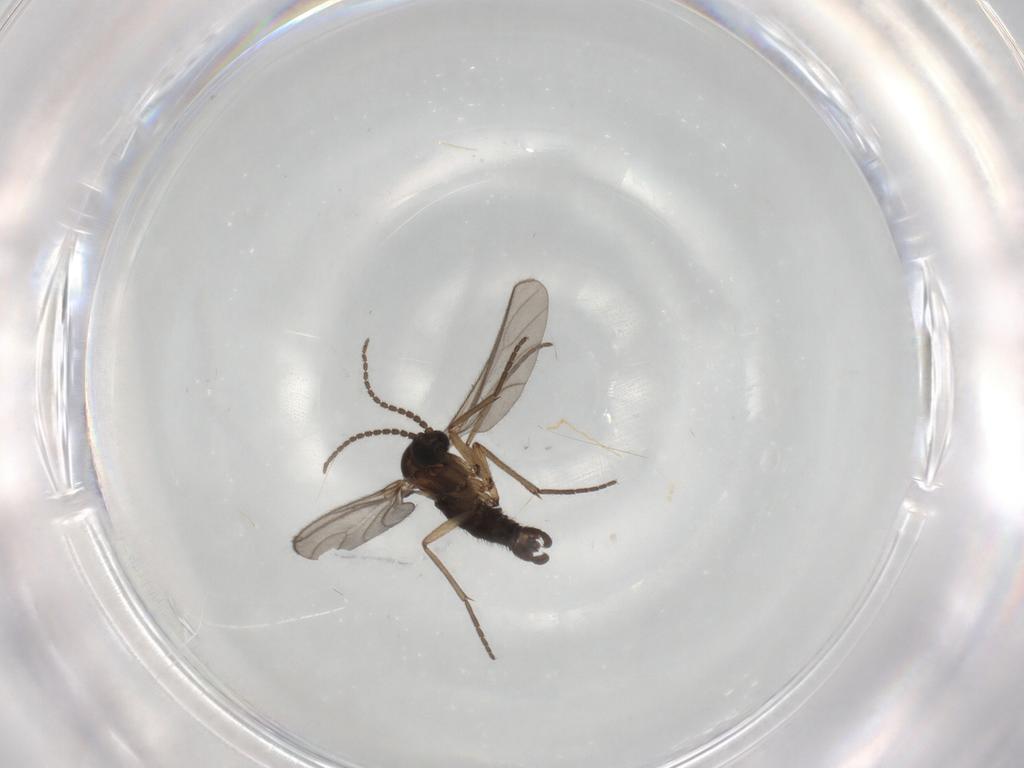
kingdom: Animalia
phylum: Arthropoda
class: Insecta
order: Diptera
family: Sciaridae
